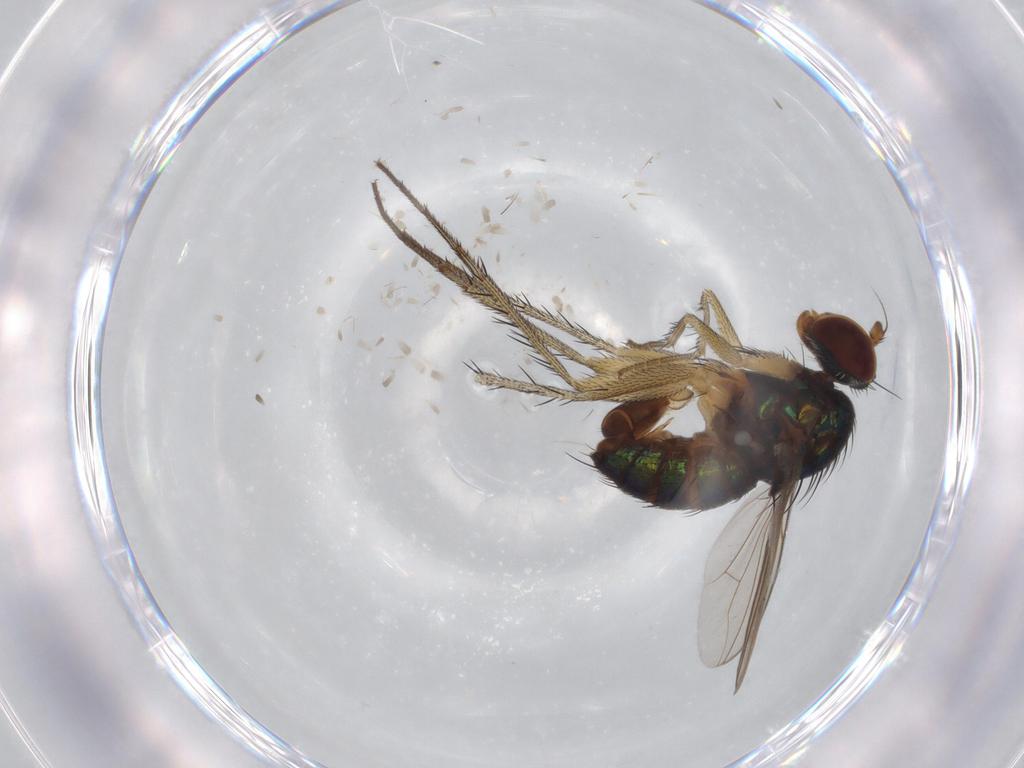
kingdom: Animalia
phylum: Arthropoda
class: Insecta
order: Diptera
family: Dolichopodidae
